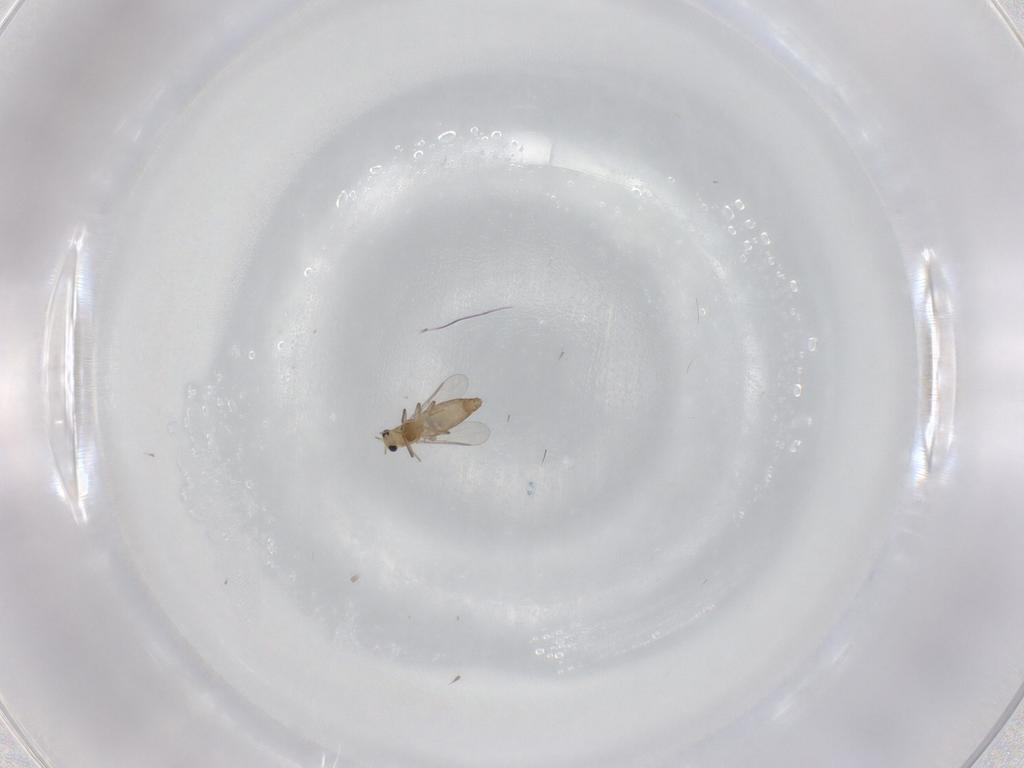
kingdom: Animalia
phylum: Arthropoda
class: Insecta
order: Diptera
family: Chironomidae
